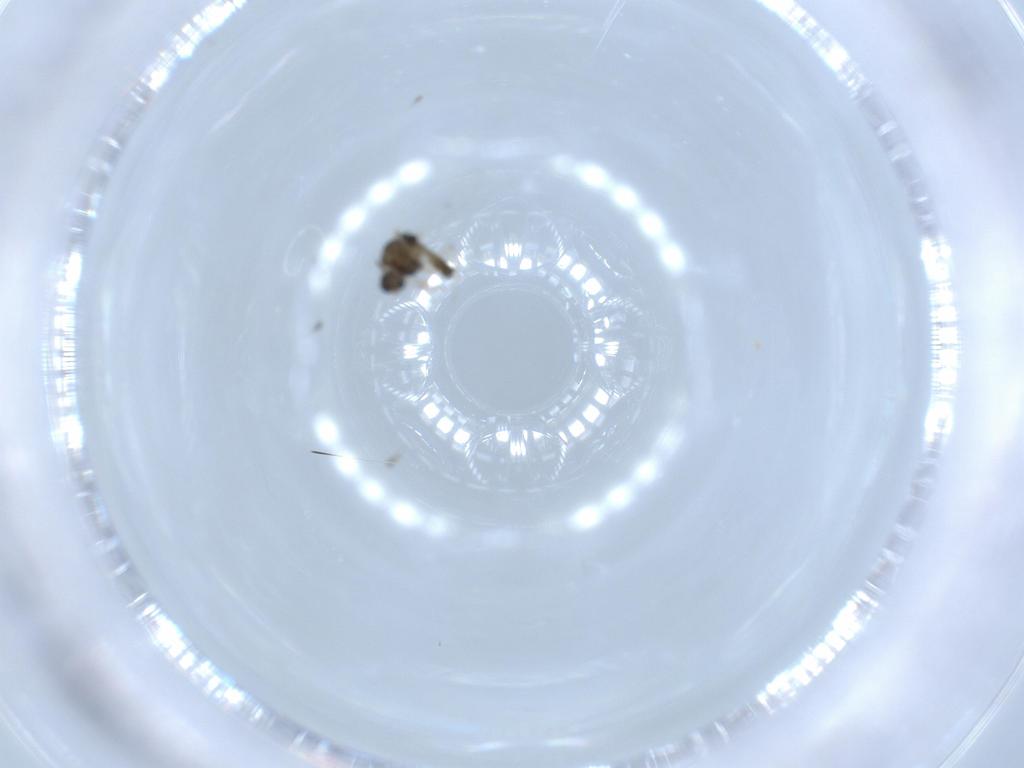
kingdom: Animalia
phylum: Arthropoda
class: Insecta
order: Diptera
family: Chironomidae
